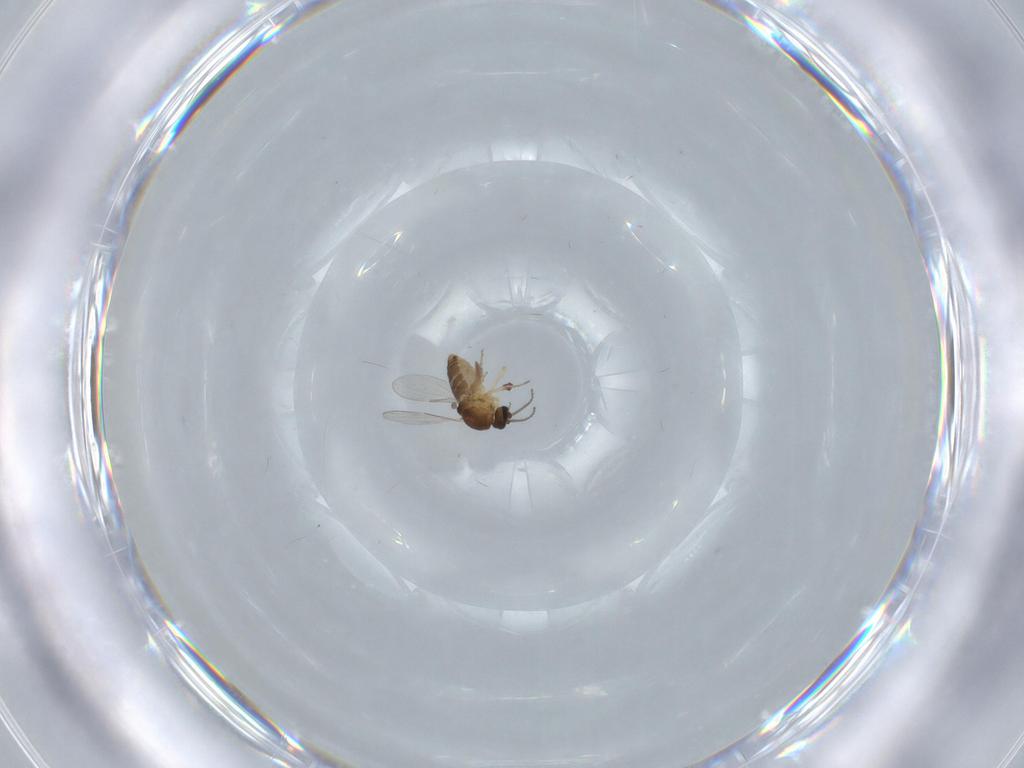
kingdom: Animalia
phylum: Arthropoda
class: Insecta
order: Diptera
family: Ceratopogonidae
